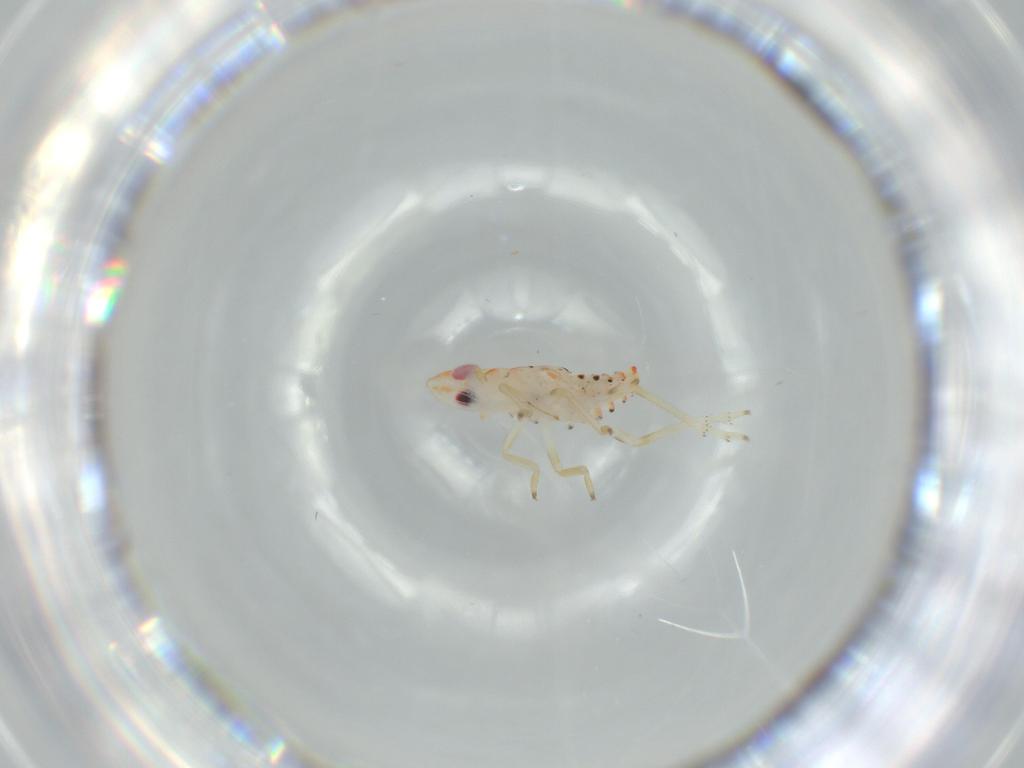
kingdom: Animalia
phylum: Arthropoda
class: Insecta
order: Hemiptera
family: Tropiduchidae
